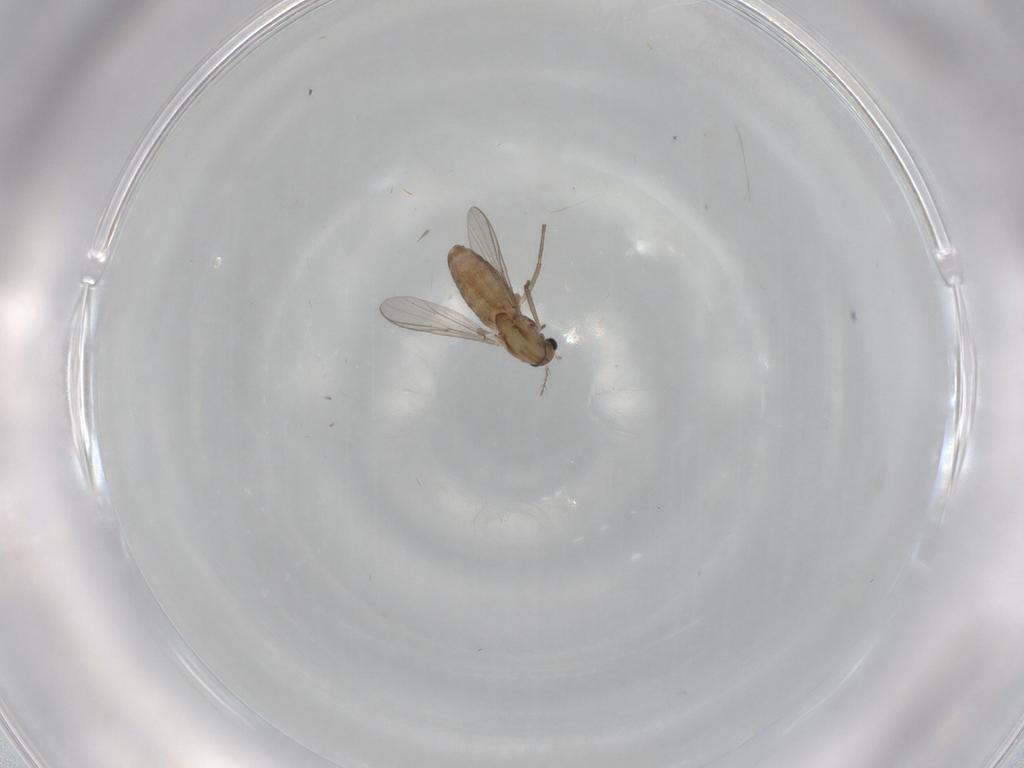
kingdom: Animalia
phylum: Arthropoda
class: Insecta
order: Diptera
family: Chironomidae
